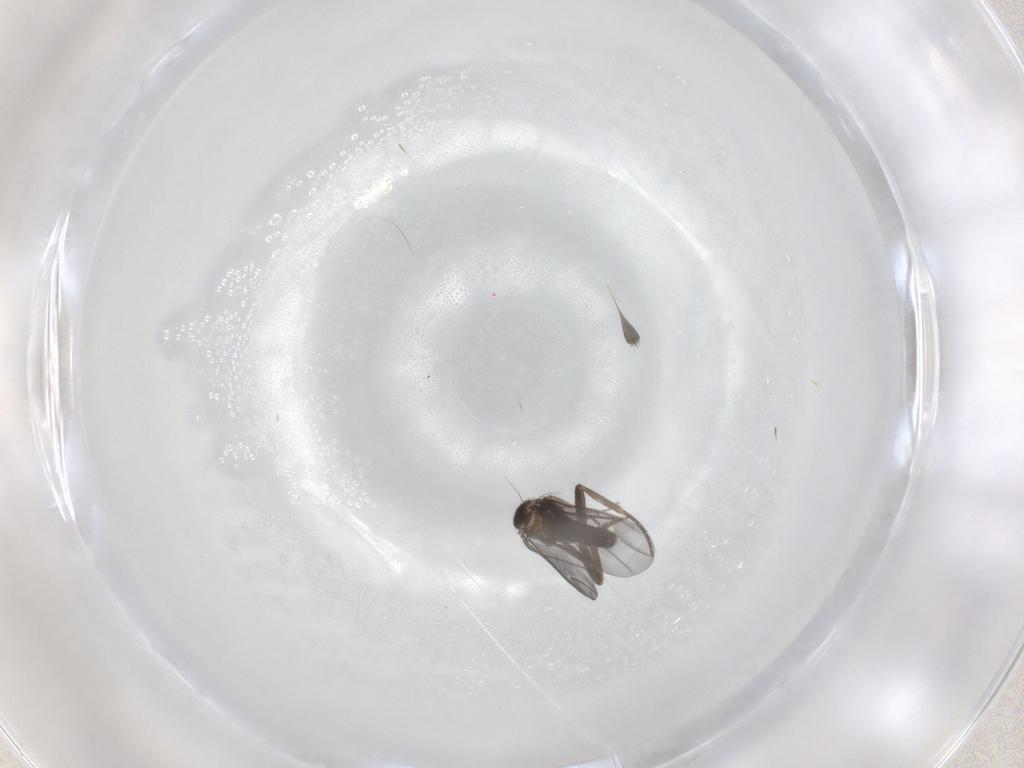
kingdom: Animalia
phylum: Arthropoda
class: Insecta
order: Diptera
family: Phoridae
